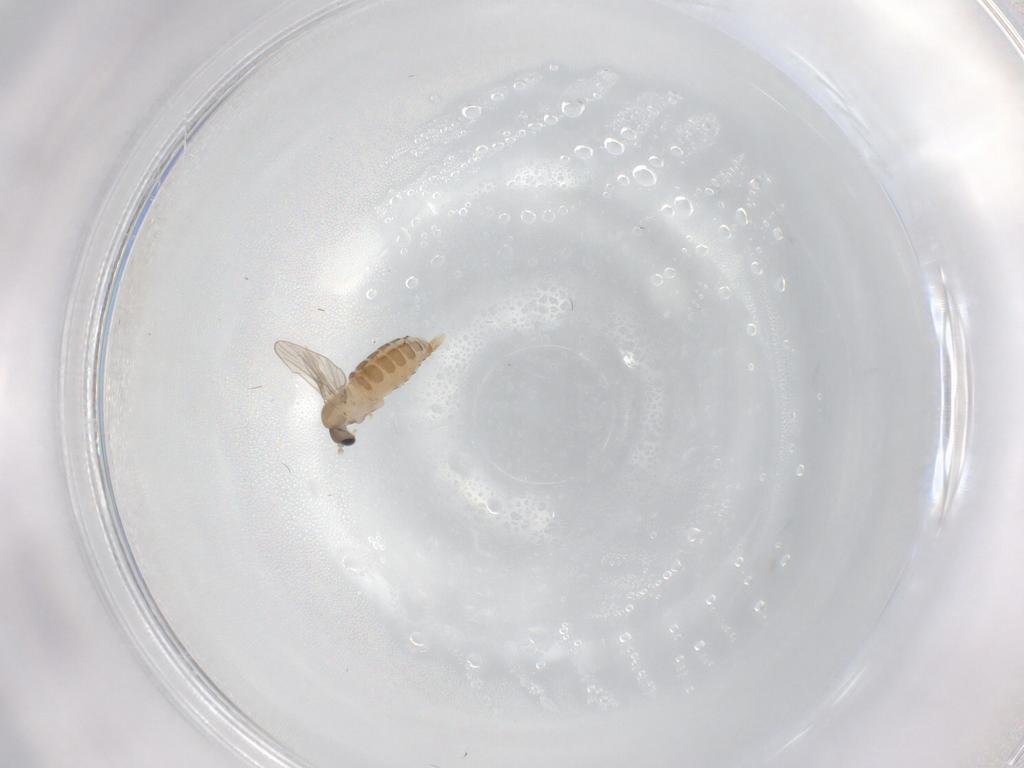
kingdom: Animalia
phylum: Arthropoda
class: Insecta
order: Diptera
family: Psychodidae
